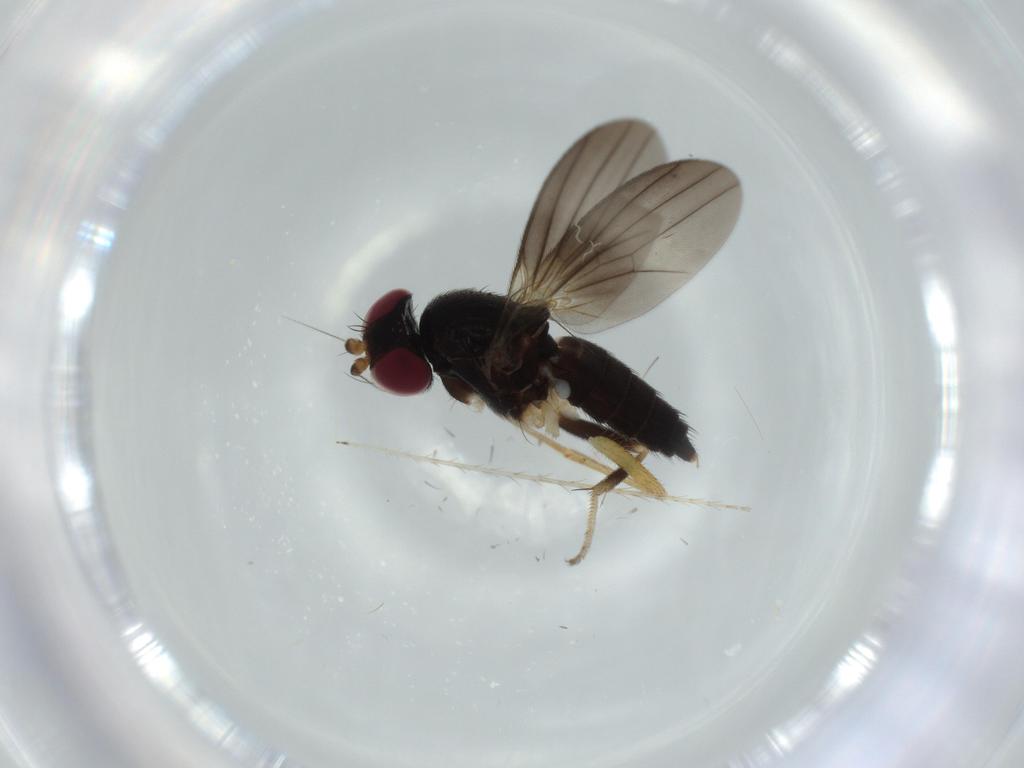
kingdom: Animalia
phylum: Arthropoda
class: Insecta
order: Diptera
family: Clusiidae
